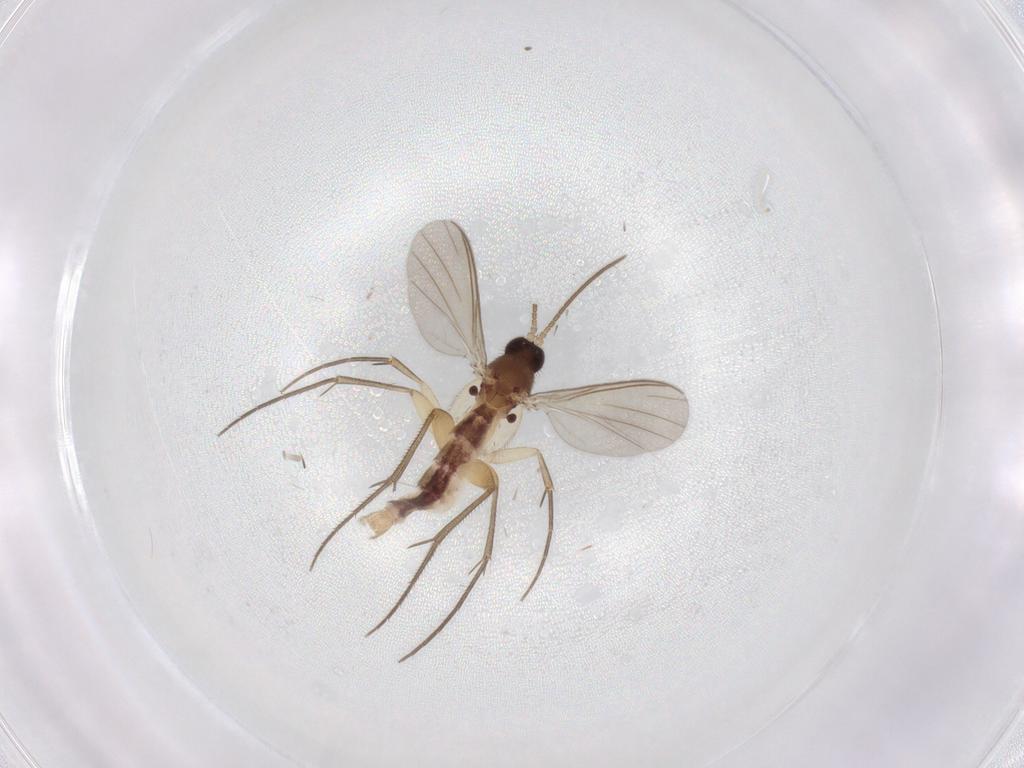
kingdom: Animalia
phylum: Arthropoda
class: Insecta
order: Diptera
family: Mycetophilidae
